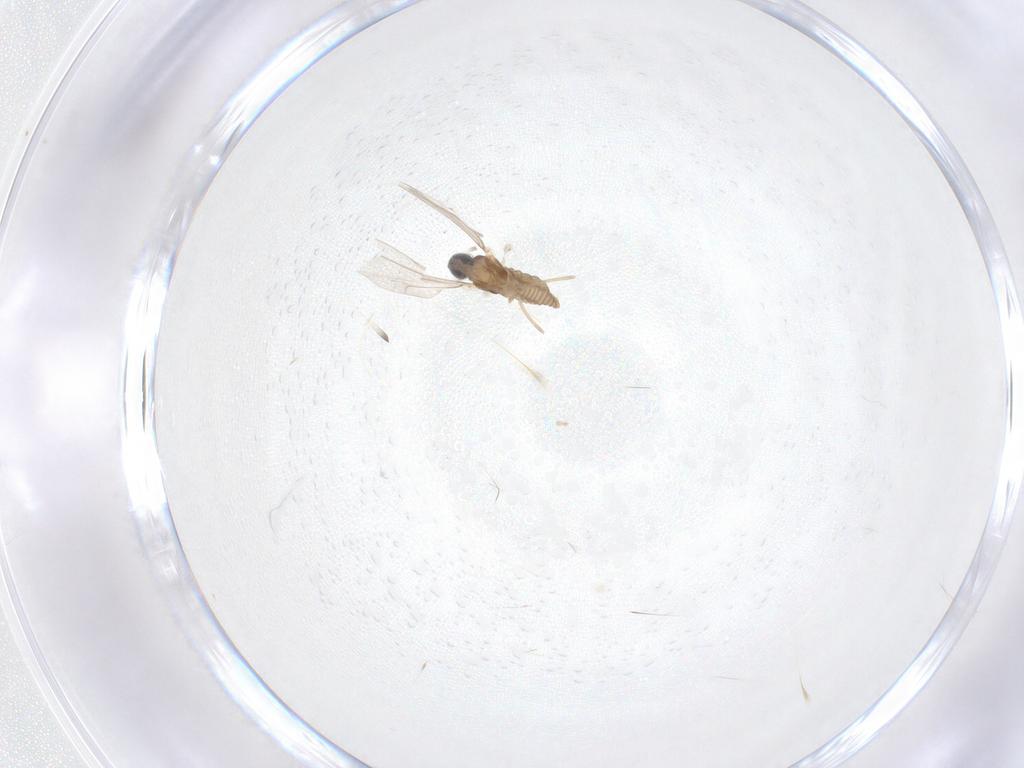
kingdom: Animalia
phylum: Arthropoda
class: Insecta
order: Diptera
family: Cecidomyiidae
